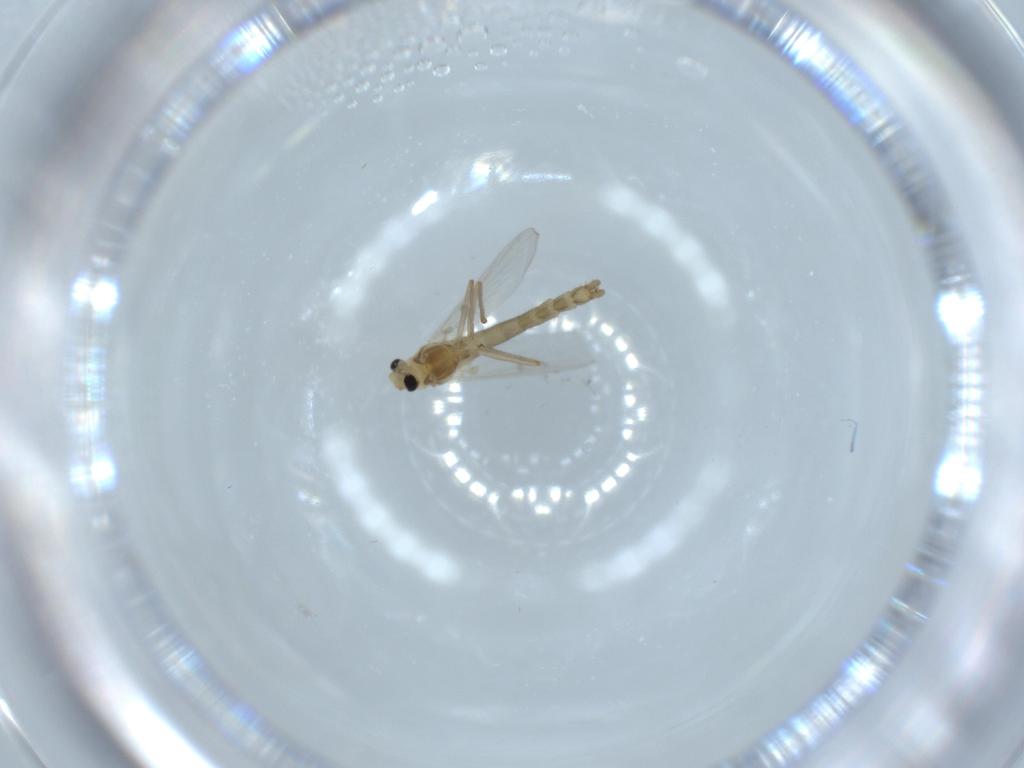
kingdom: Animalia
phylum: Arthropoda
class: Insecta
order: Diptera
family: Chironomidae
